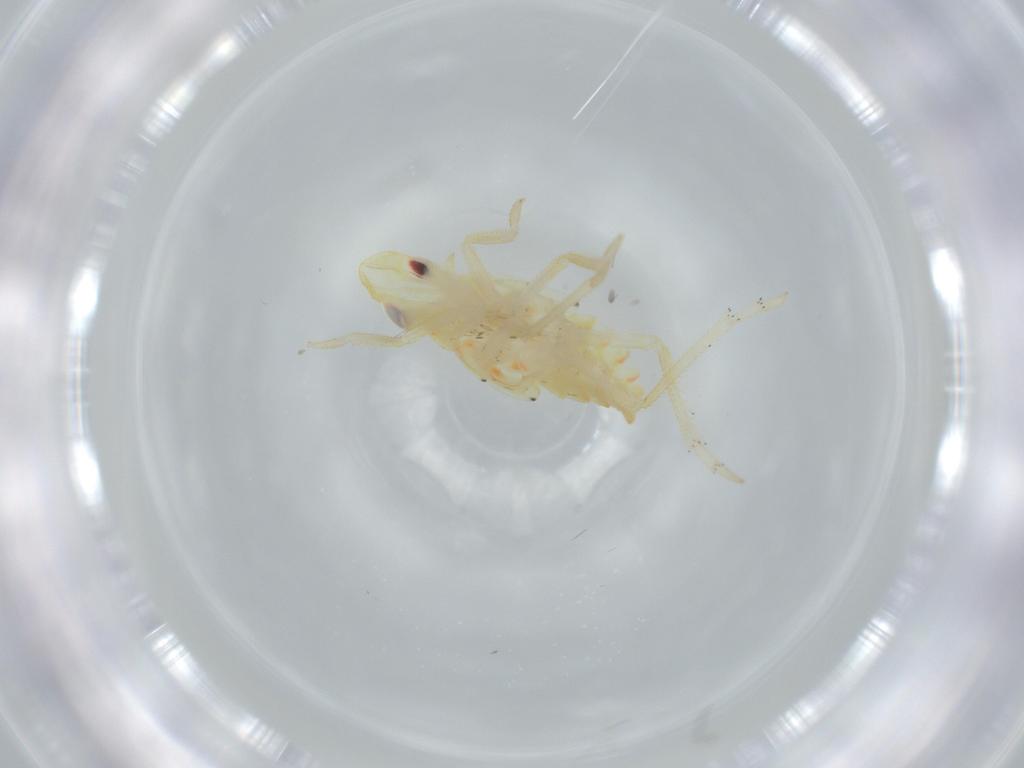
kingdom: Animalia
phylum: Arthropoda
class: Insecta
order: Hemiptera
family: Tropiduchidae
